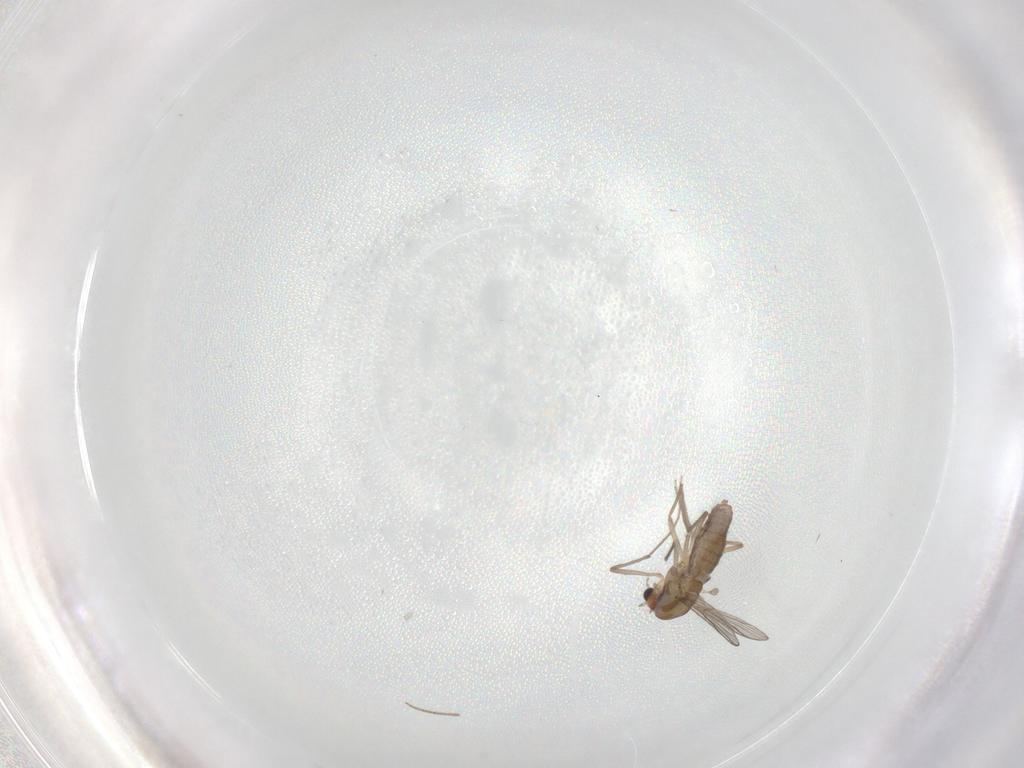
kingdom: Animalia
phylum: Arthropoda
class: Insecta
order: Diptera
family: Chironomidae
